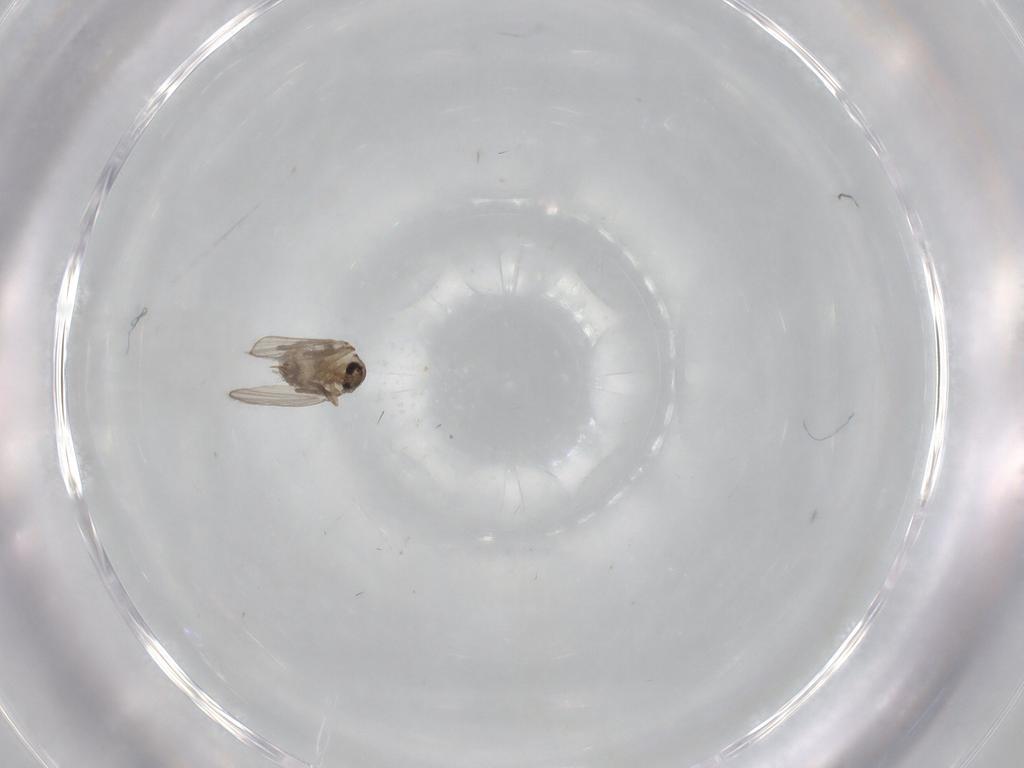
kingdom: Animalia
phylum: Arthropoda
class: Insecta
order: Diptera
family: Psychodidae
